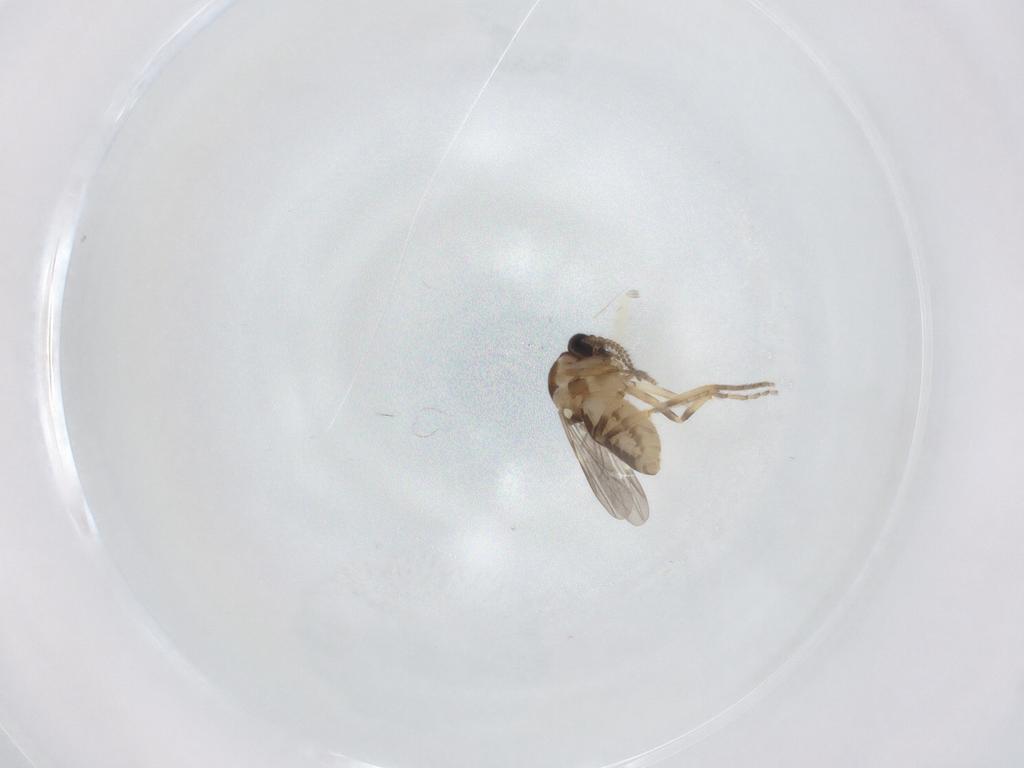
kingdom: Animalia
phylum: Arthropoda
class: Insecta
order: Diptera
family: Ceratopogonidae
